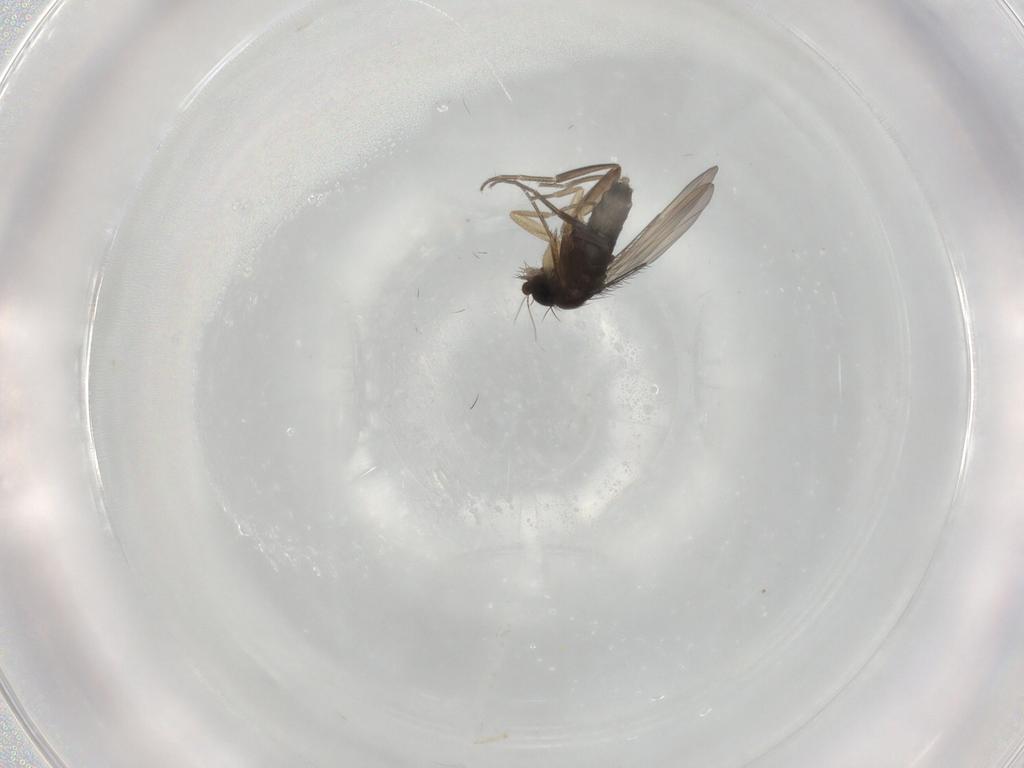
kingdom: Animalia
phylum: Arthropoda
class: Insecta
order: Diptera
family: Phoridae
